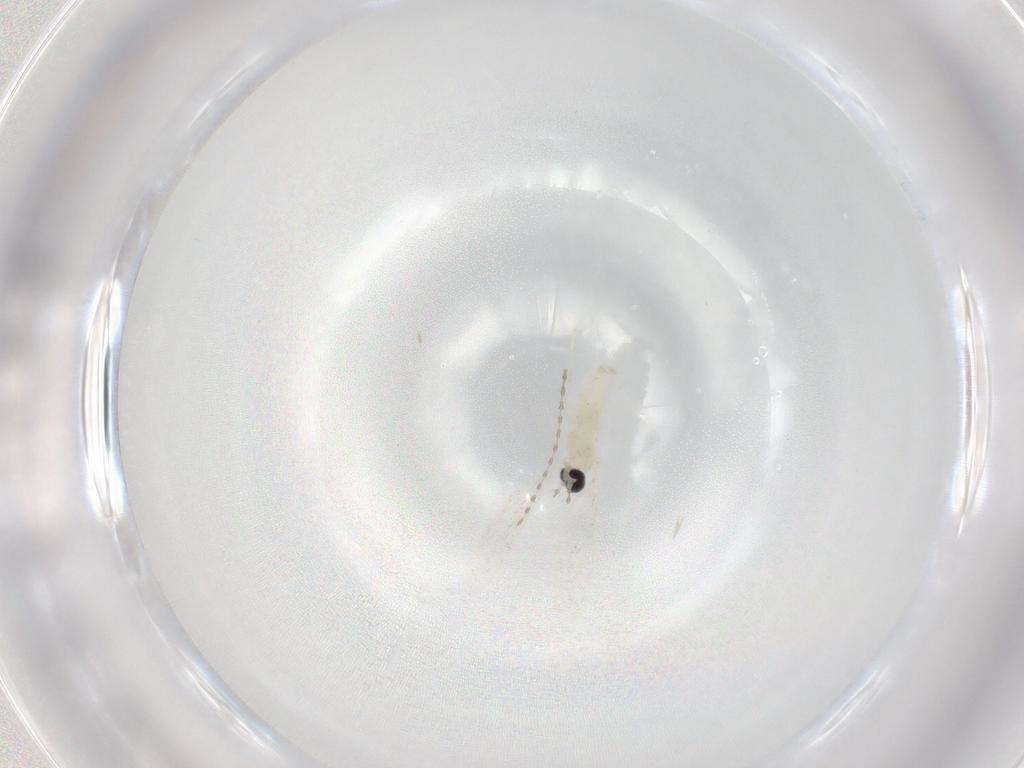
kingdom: Animalia
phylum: Arthropoda
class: Insecta
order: Diptera
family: Cecidomyiidae
